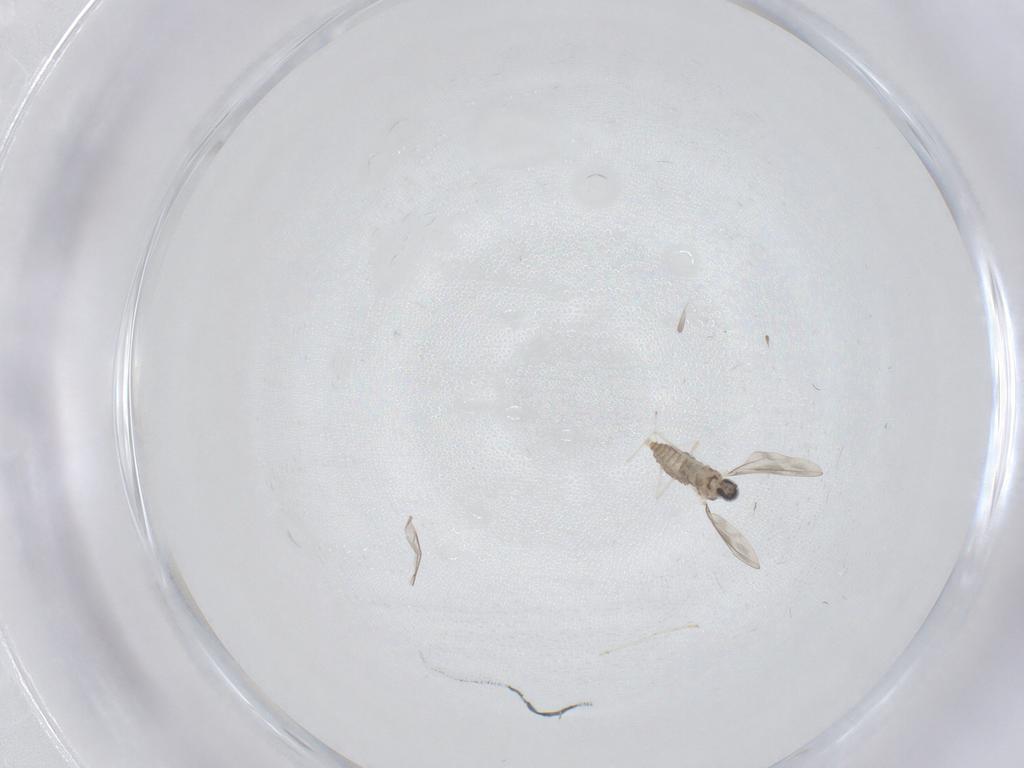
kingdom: Animalia
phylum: Arthropoda
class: Insecta
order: Diptera
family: Cecidomyiidae
